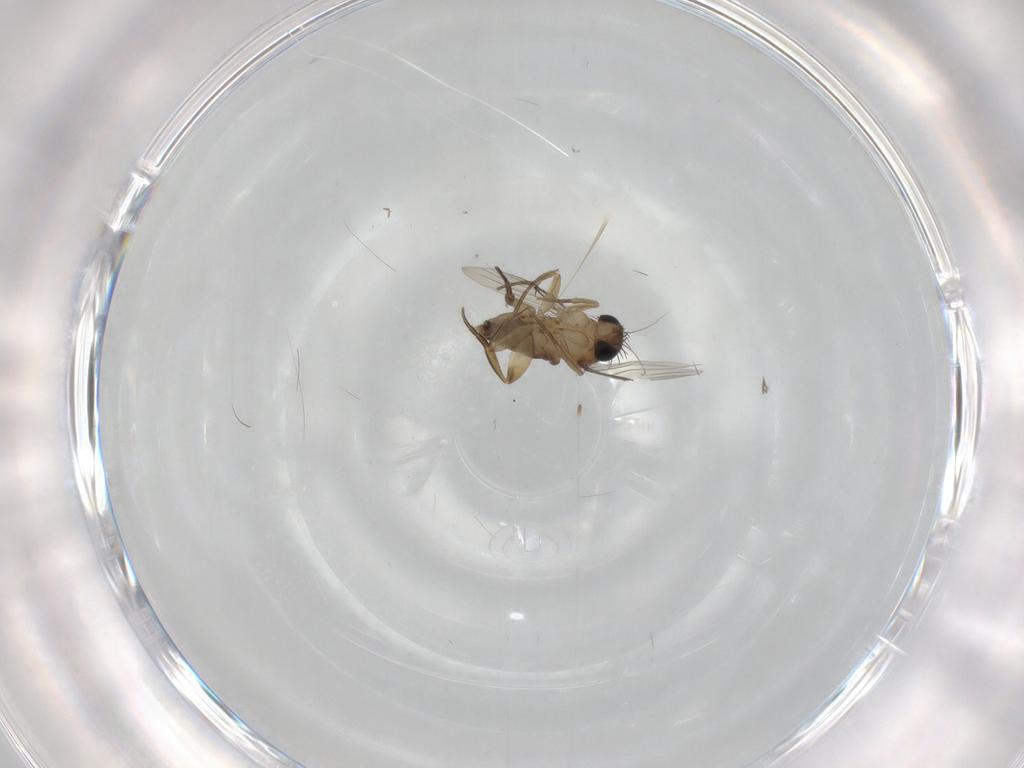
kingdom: Animalia
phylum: Arthropoda
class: Insecta
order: Diptera
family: Phoridae
